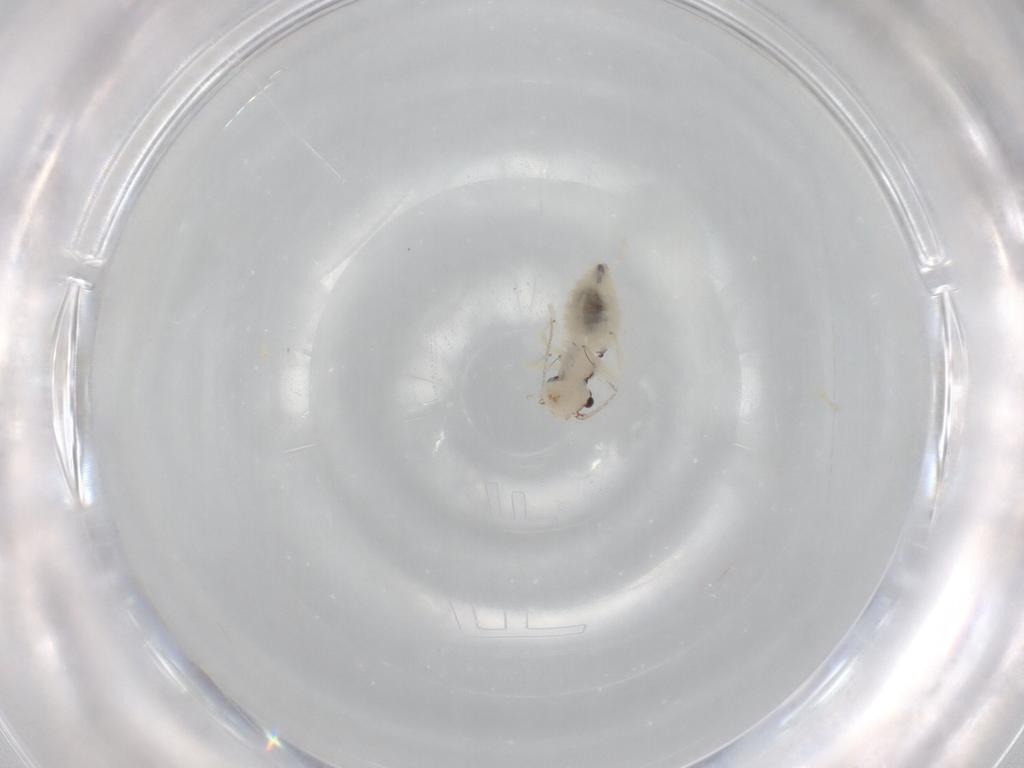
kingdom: Animalia
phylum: Arthropoda
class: Insecta
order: Psocodea
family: Philotarsidae
